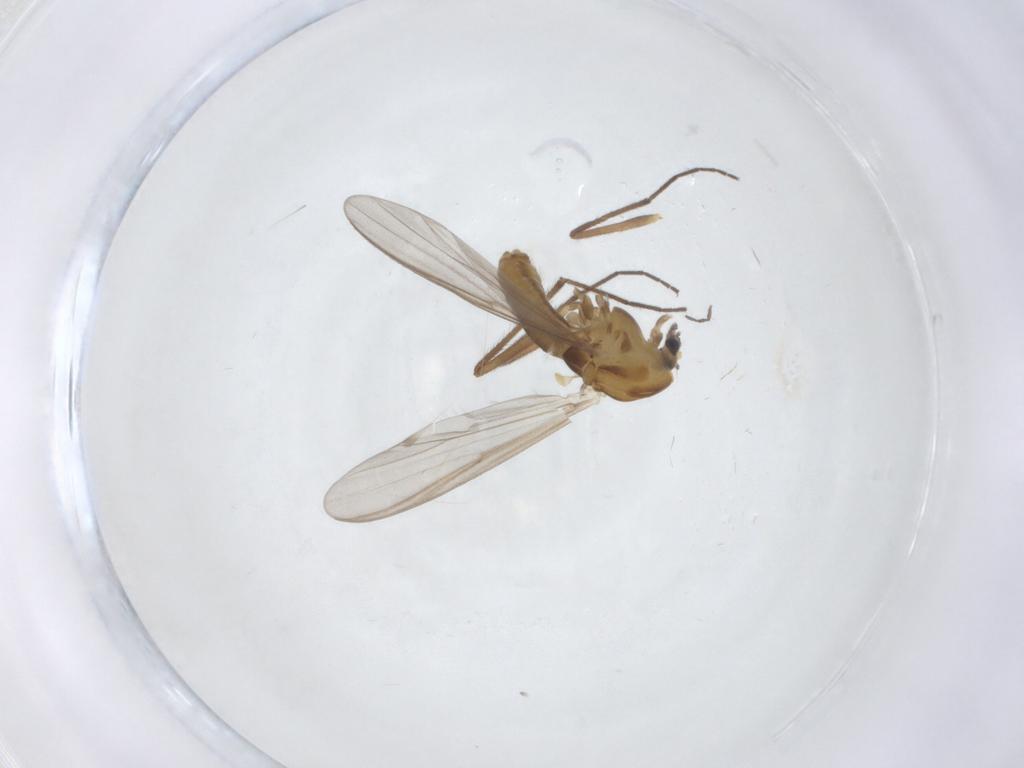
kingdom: Animalia
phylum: Arthropoda
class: Insecta
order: Diptera
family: Chironomidae
